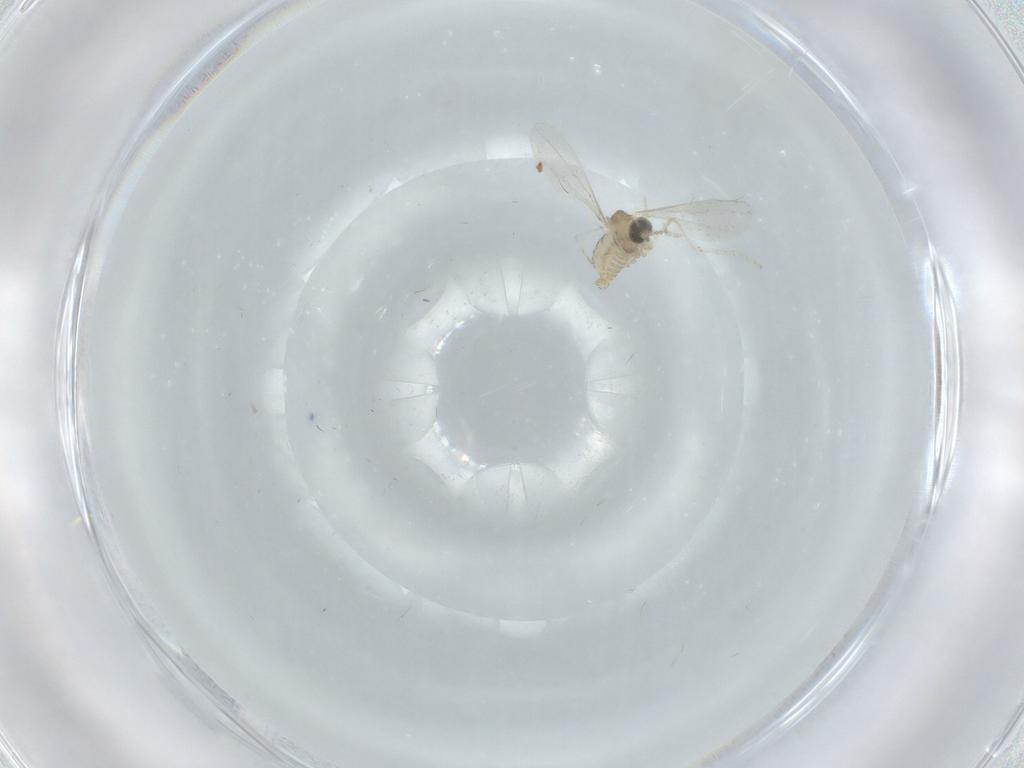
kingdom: Animalia
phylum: Arthropoda
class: Insecta
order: Diptera
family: Cecidomyiidae
